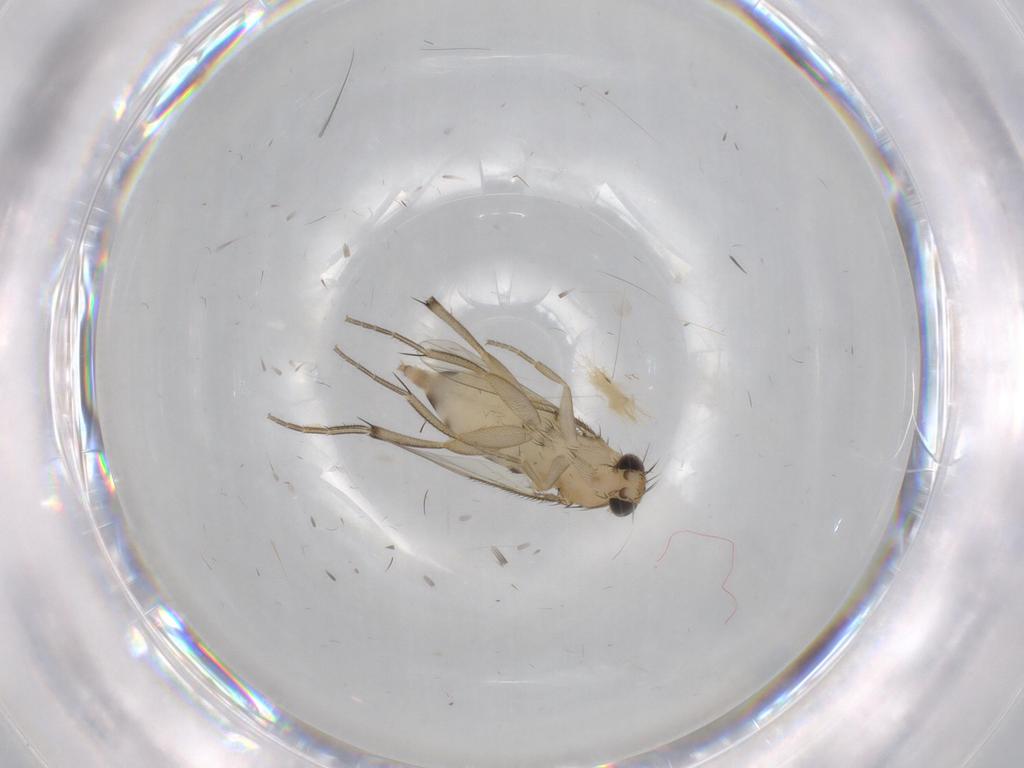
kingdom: Animalia
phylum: Arthropoda
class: Insecta
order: Diptera
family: Phoridae
